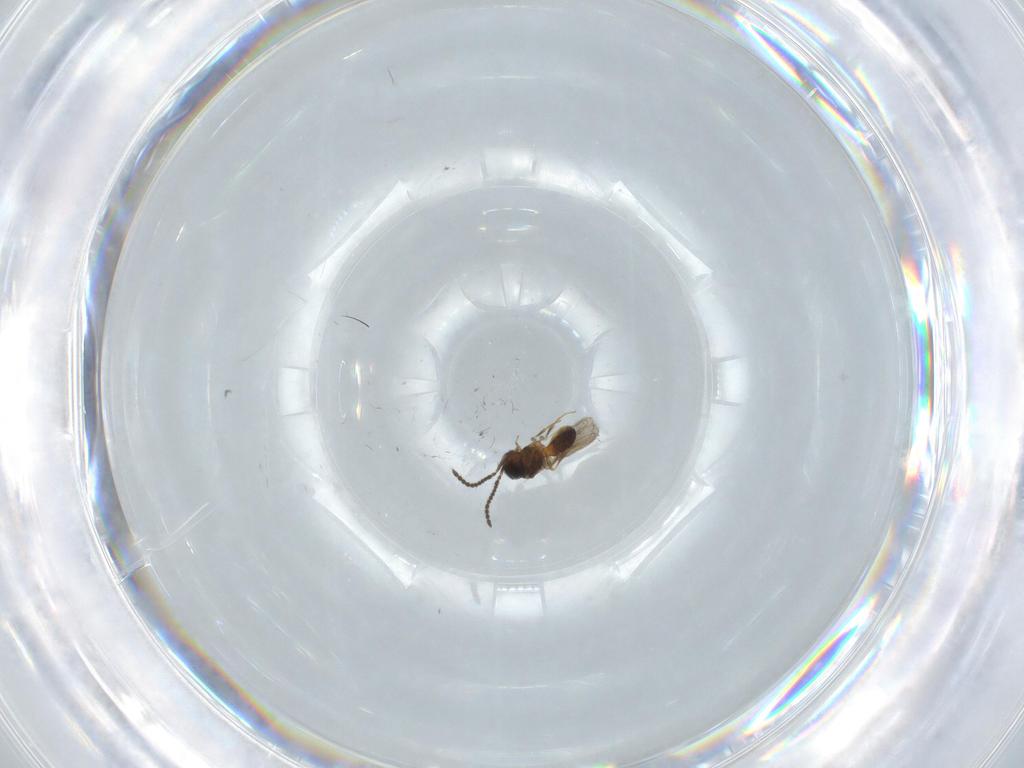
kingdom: Animalia
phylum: Arthropoda
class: Insecta
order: Hymenoptera
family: Scelionidae
